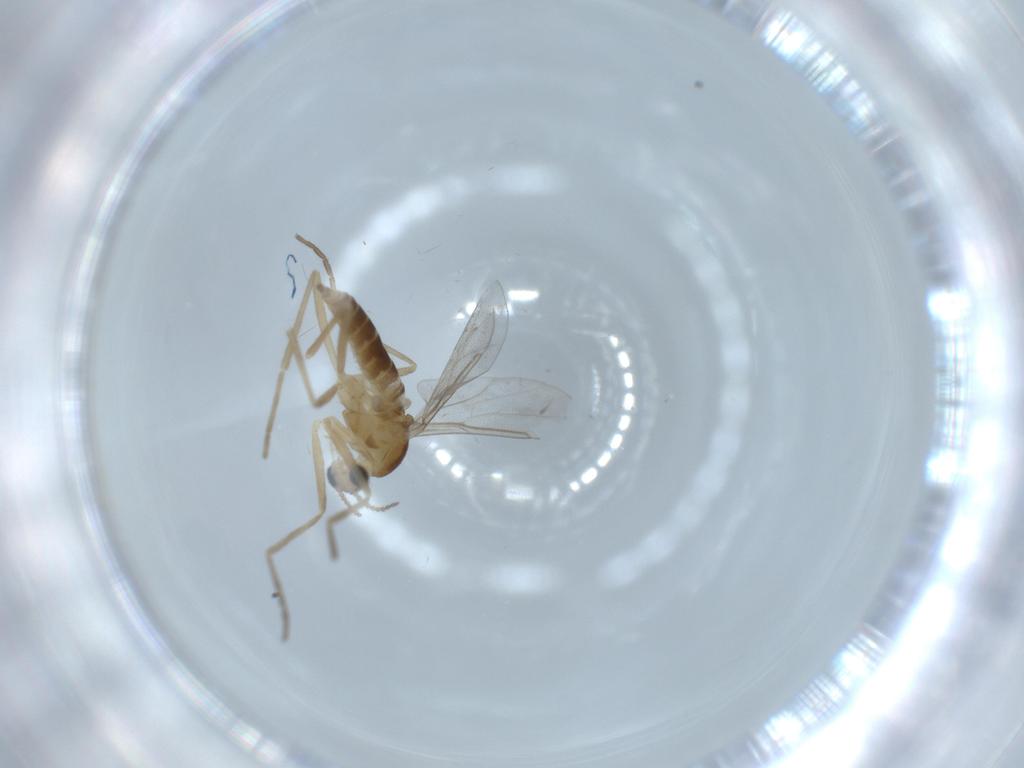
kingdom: Animalia
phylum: Arthropoda
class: Insecta
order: Diptera
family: Cecidomyiidae
